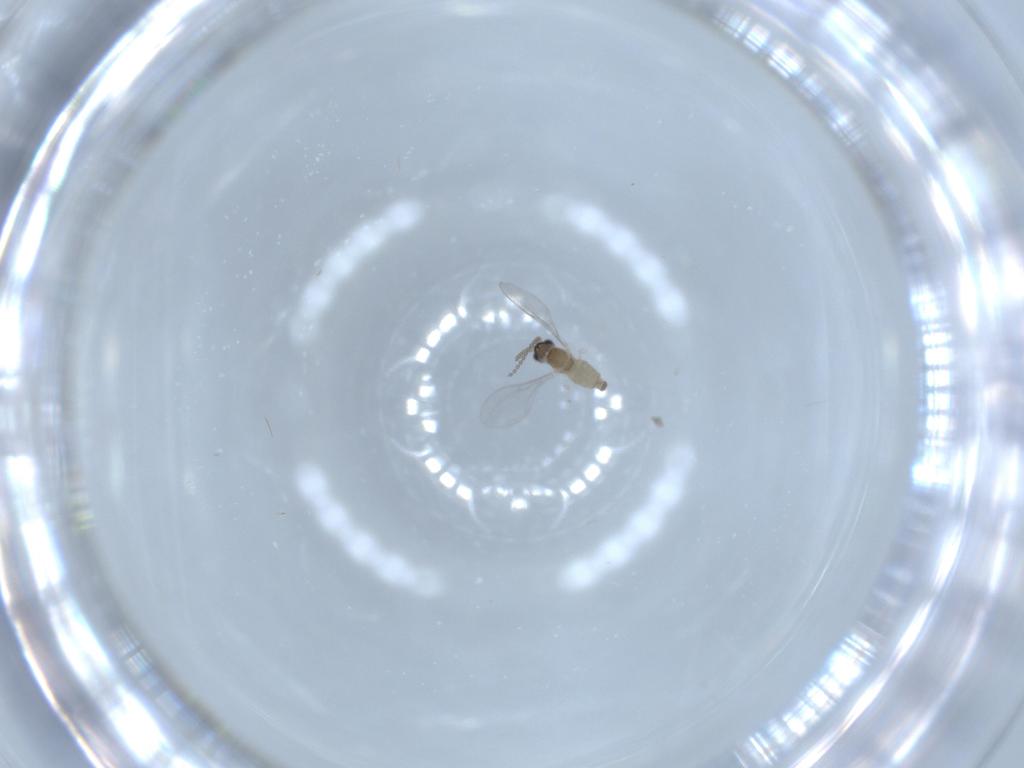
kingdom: Animalia
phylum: Arthropoda
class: Insecta
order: Diptera
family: Cecidomyiidae
